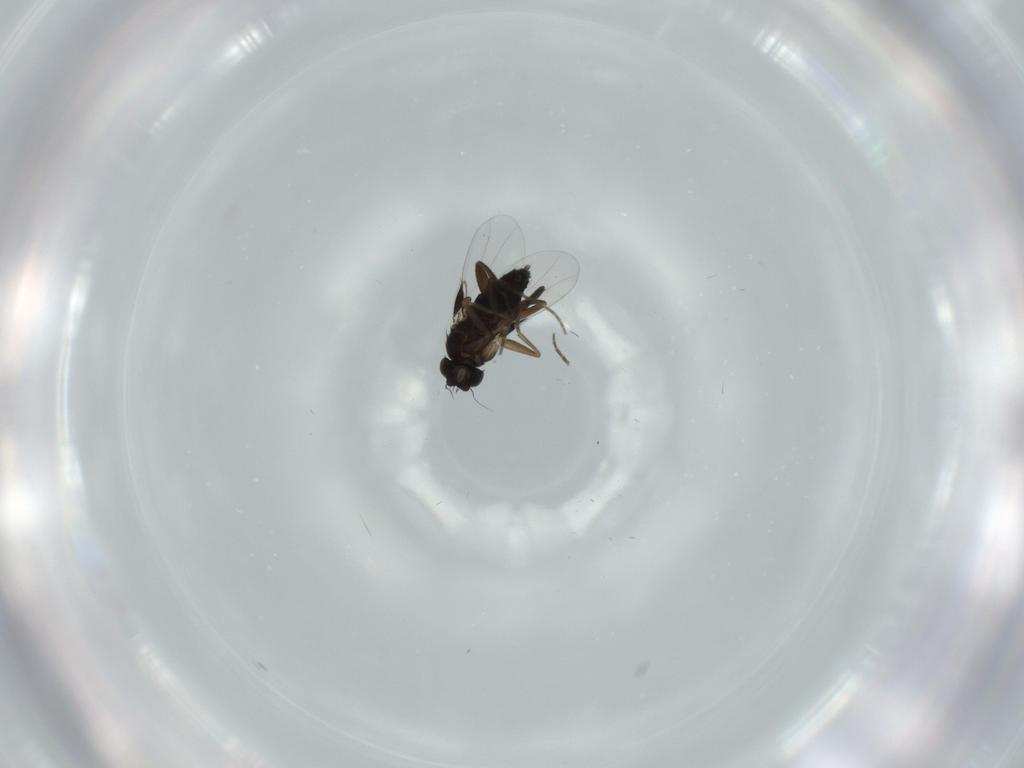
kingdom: Animalia
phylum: Arthropoda
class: Insecta
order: Diptera
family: Phoridae
